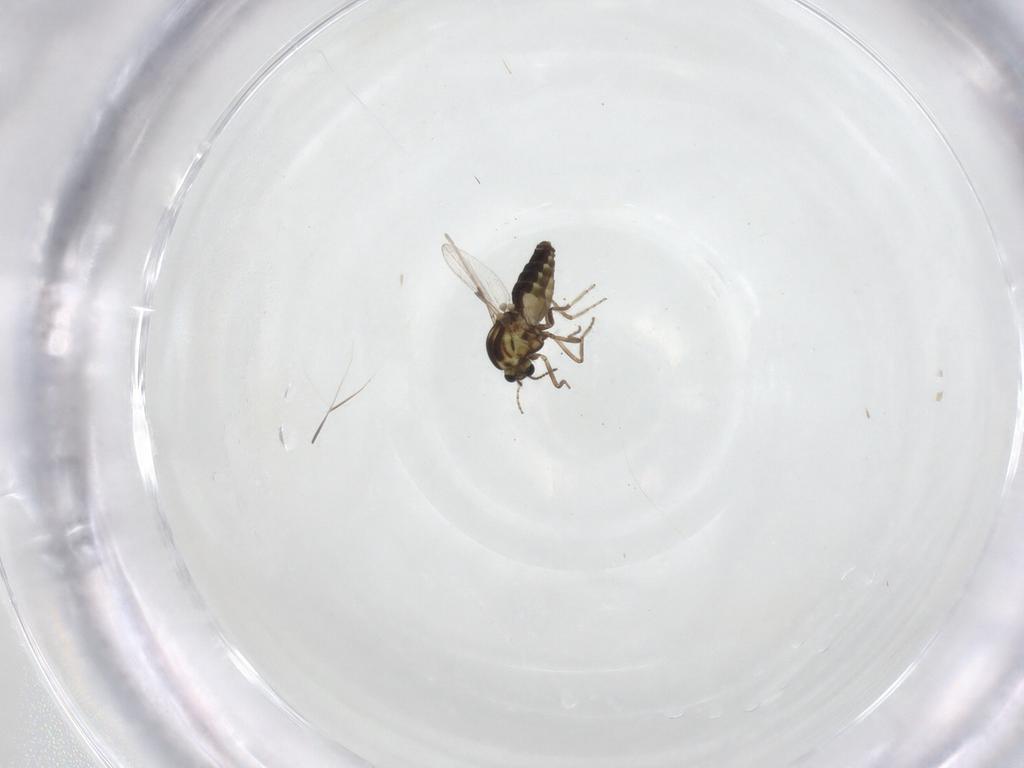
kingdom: Animalia
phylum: Arthropoda
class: Insecta
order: Diptera
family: Ceratopogonidae
